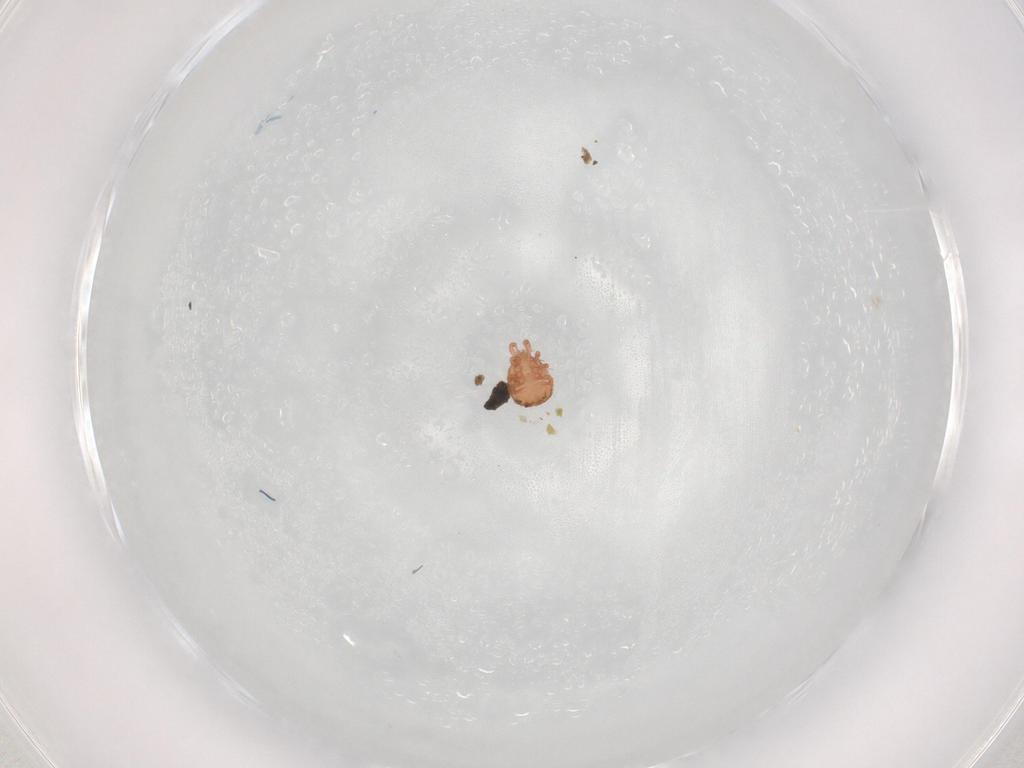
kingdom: Animalia
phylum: Arthropoda
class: Arachnida
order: Mesostigmata
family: Zerconidae
